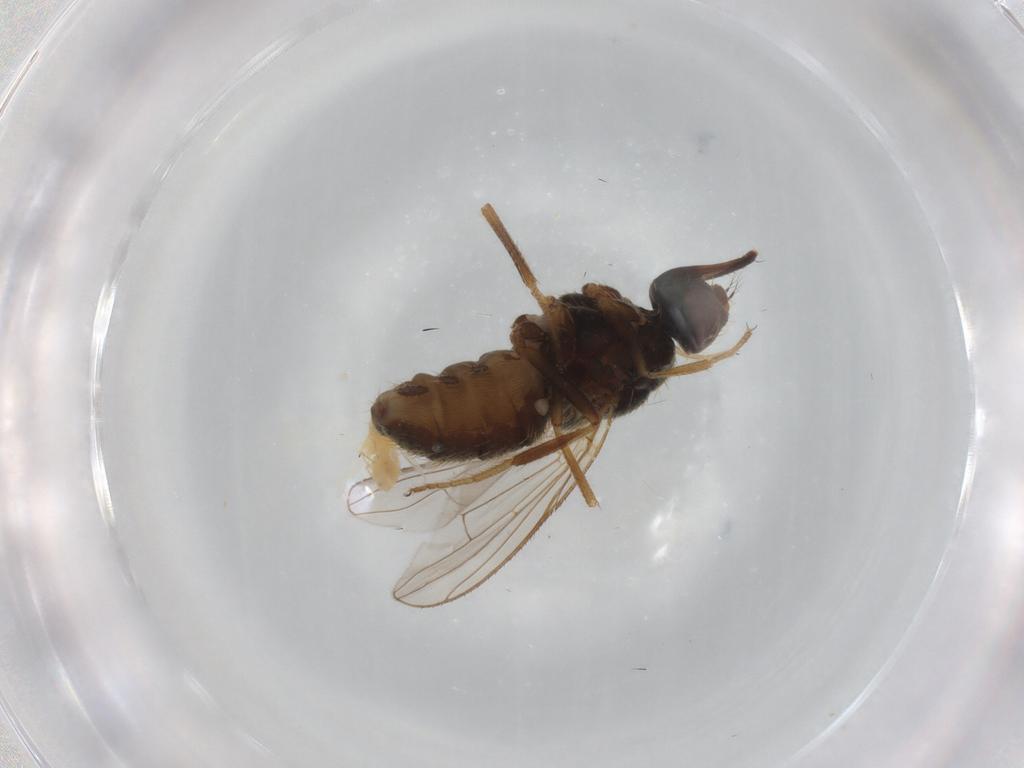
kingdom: Animalia
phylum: Arthropoda
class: Insecta
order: Diptera
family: Muscidae
